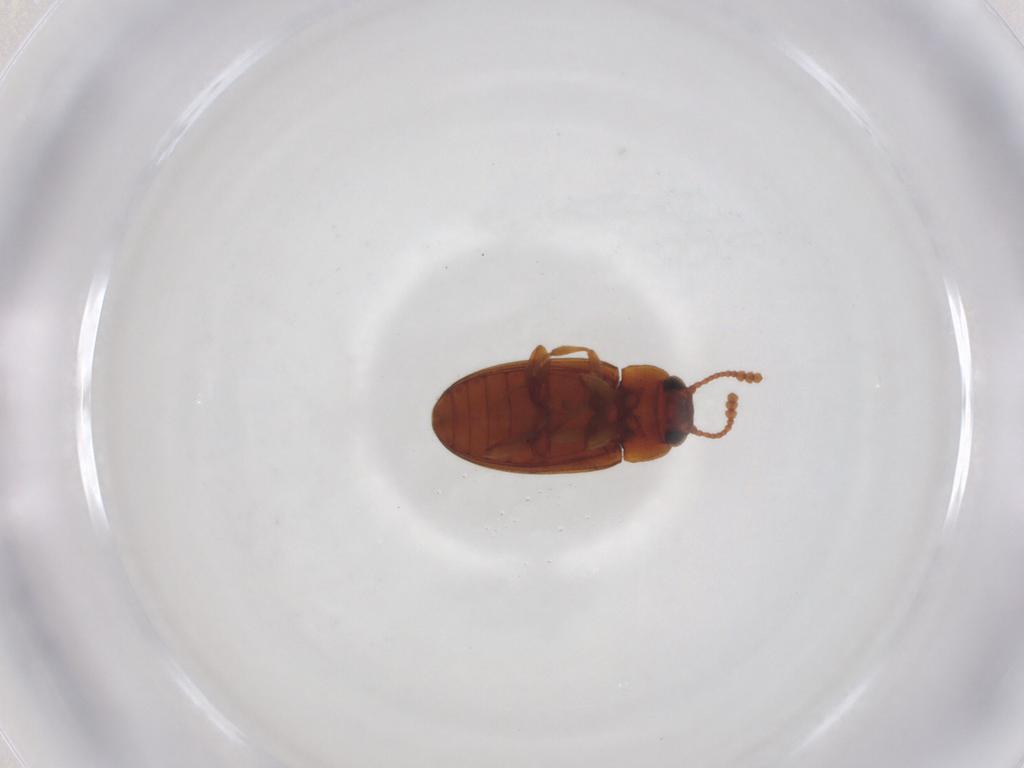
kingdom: Animalia
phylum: Arthropoda
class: Insecta
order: Coleoptera
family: Erotylidae
